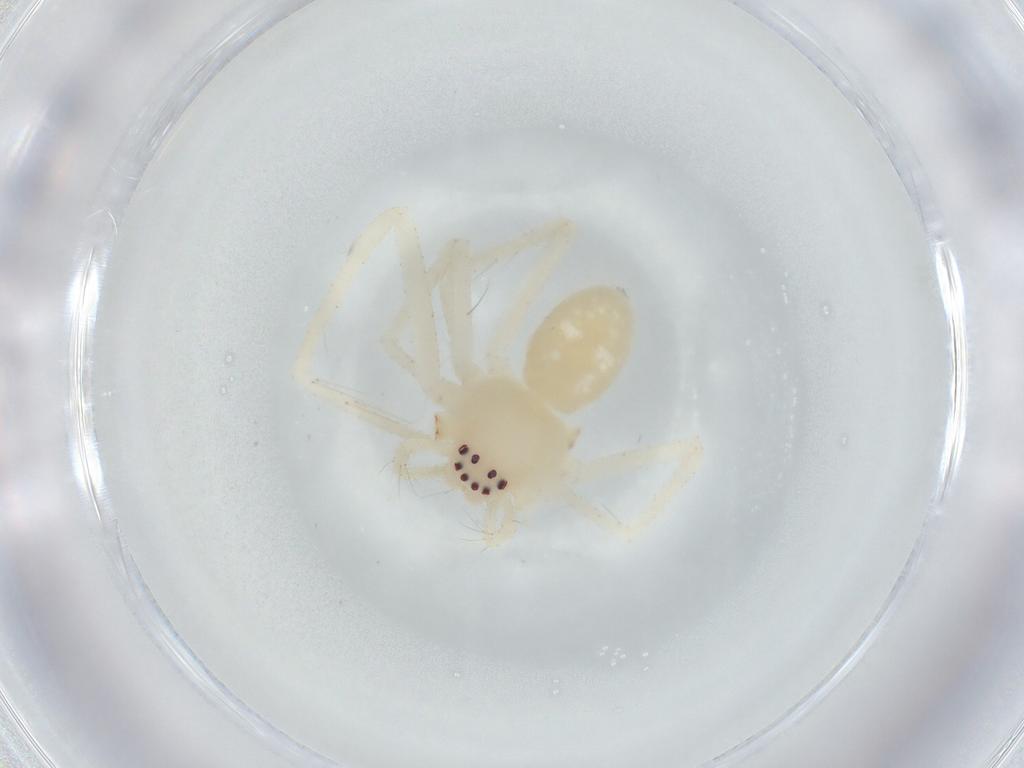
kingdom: Animalia
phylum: Arthropoda
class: Arachnida
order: Araneae
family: Sparassidae
